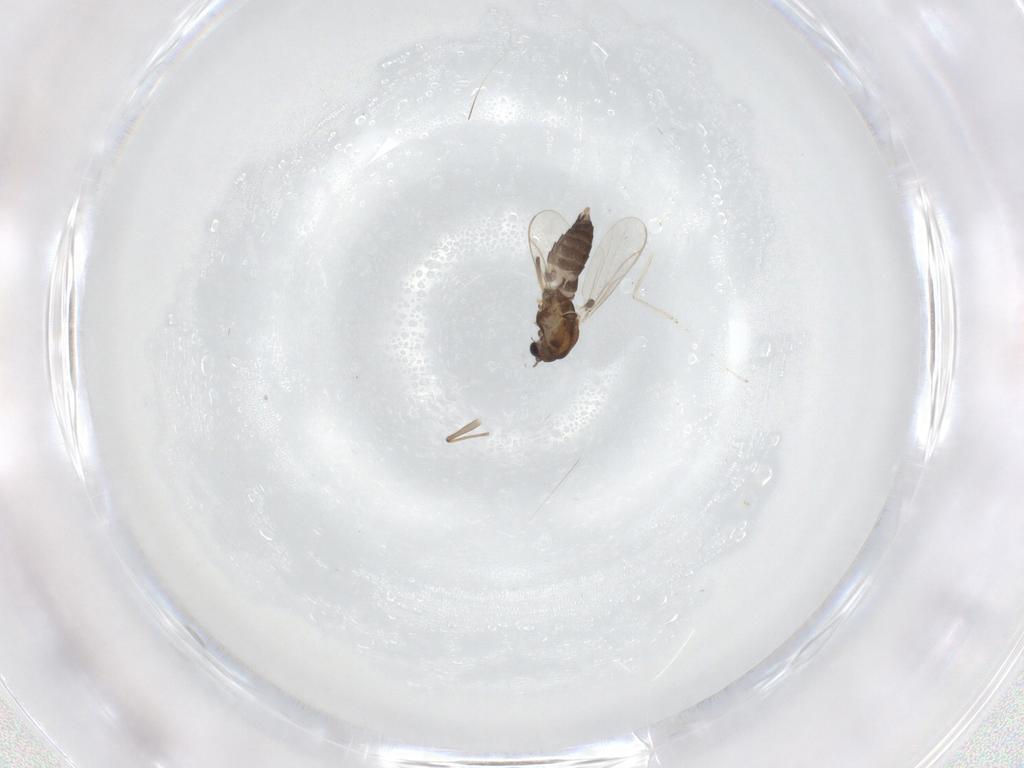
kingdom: Animalia
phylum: Arthropoda
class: Insecta
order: Diptera
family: Chironomidae
